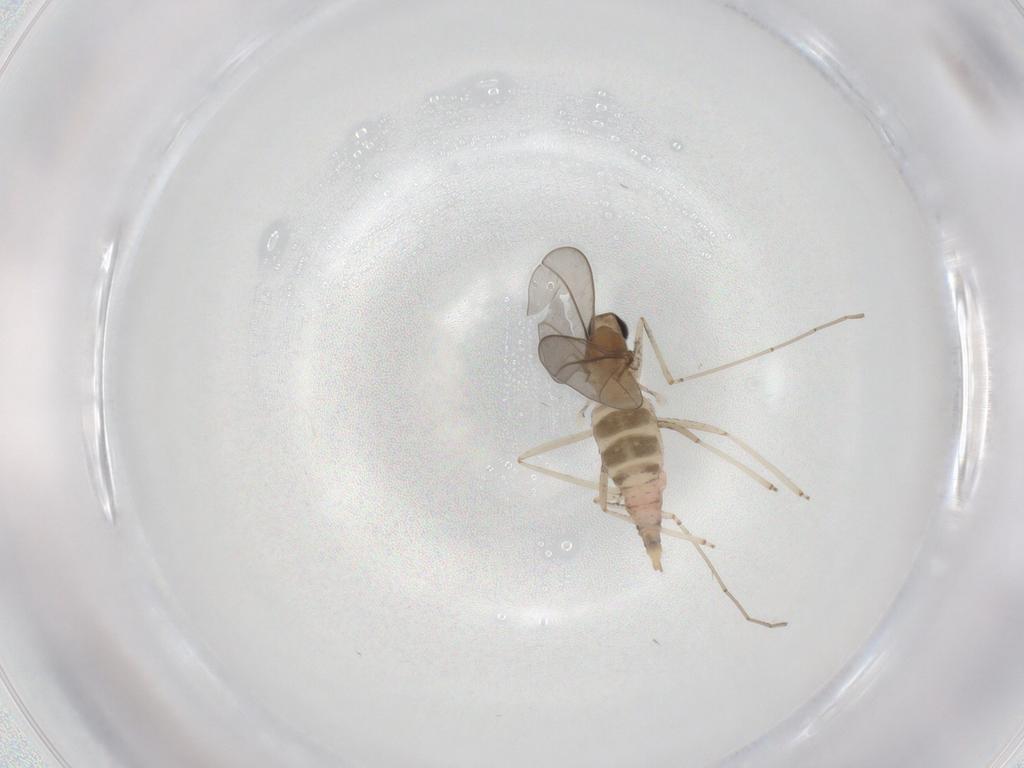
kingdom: Animalia
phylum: Arthropoda
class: Insecta
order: Diptera
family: Cecidomyiidae
